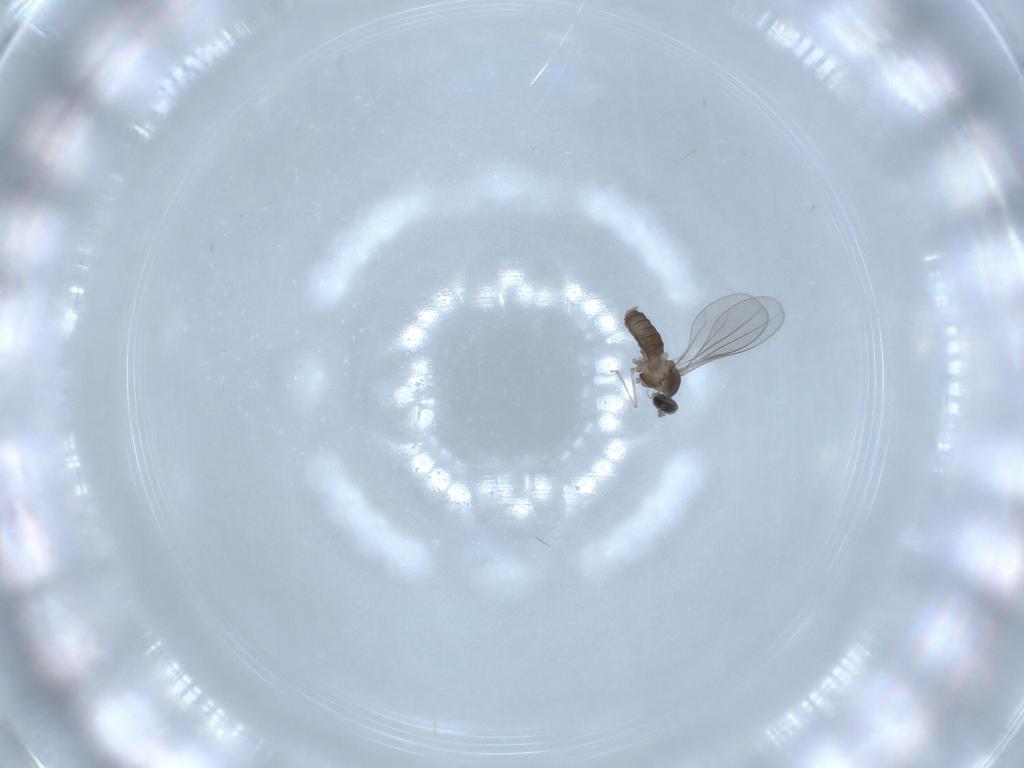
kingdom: Animalia
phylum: Arthropoda
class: Insecta
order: Diptera
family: Cecidomyiidae
